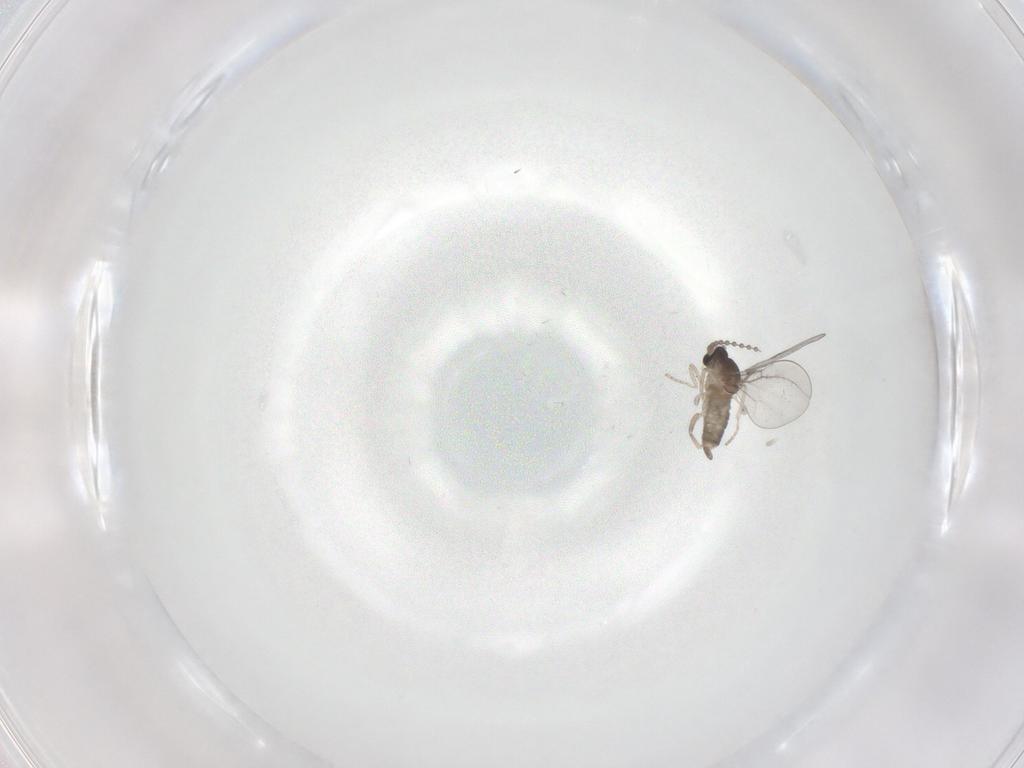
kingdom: Animalia
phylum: Arthropoda
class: Insecta
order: Diptera
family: Cecidomyiidae
